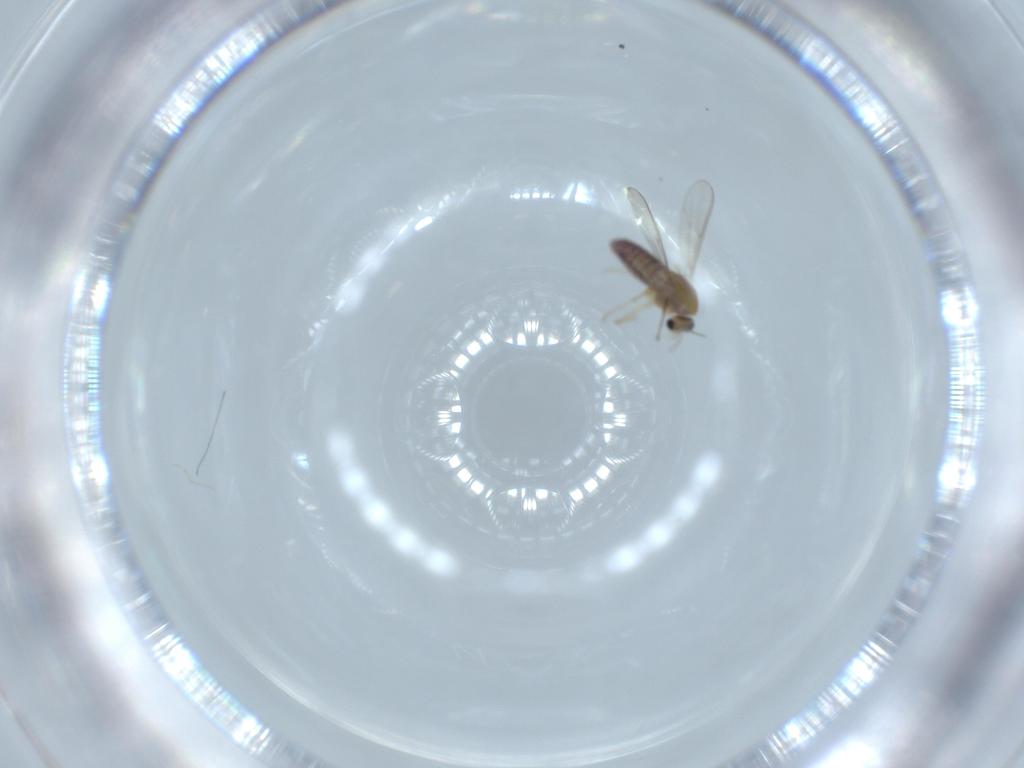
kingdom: Animalia
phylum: Arthropoda
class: Insecta
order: Diptera
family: Chironomidae
